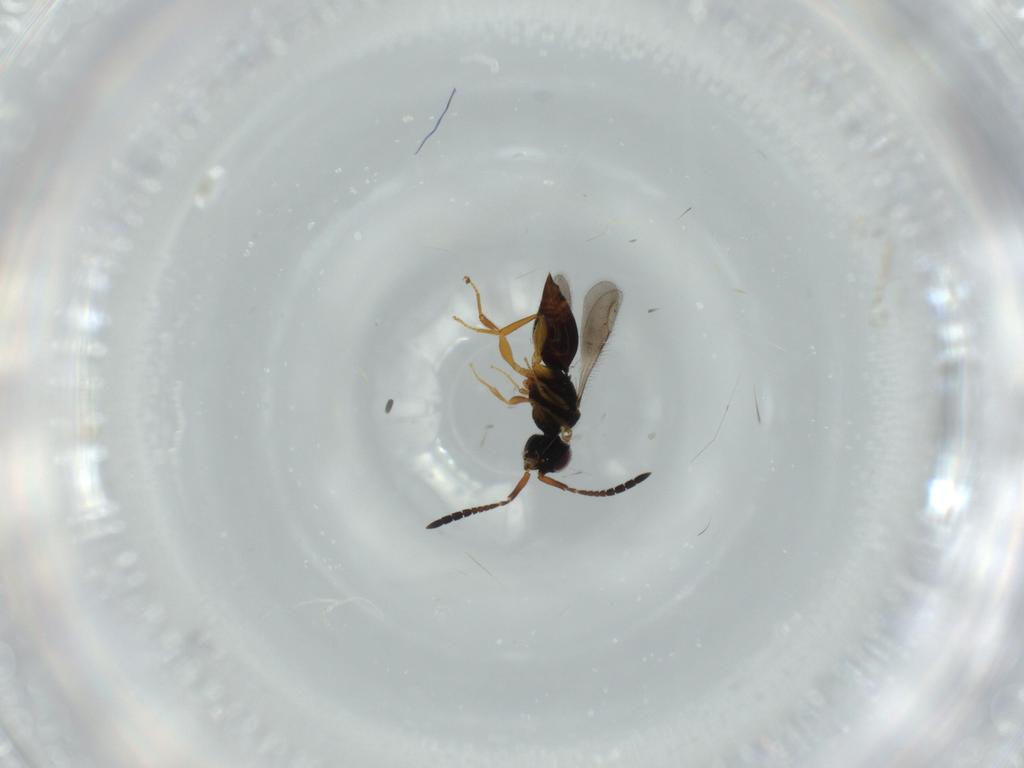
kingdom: Animalia
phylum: Arthropoda
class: Insecta
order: Hymenoptera
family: Ceraphronidae
